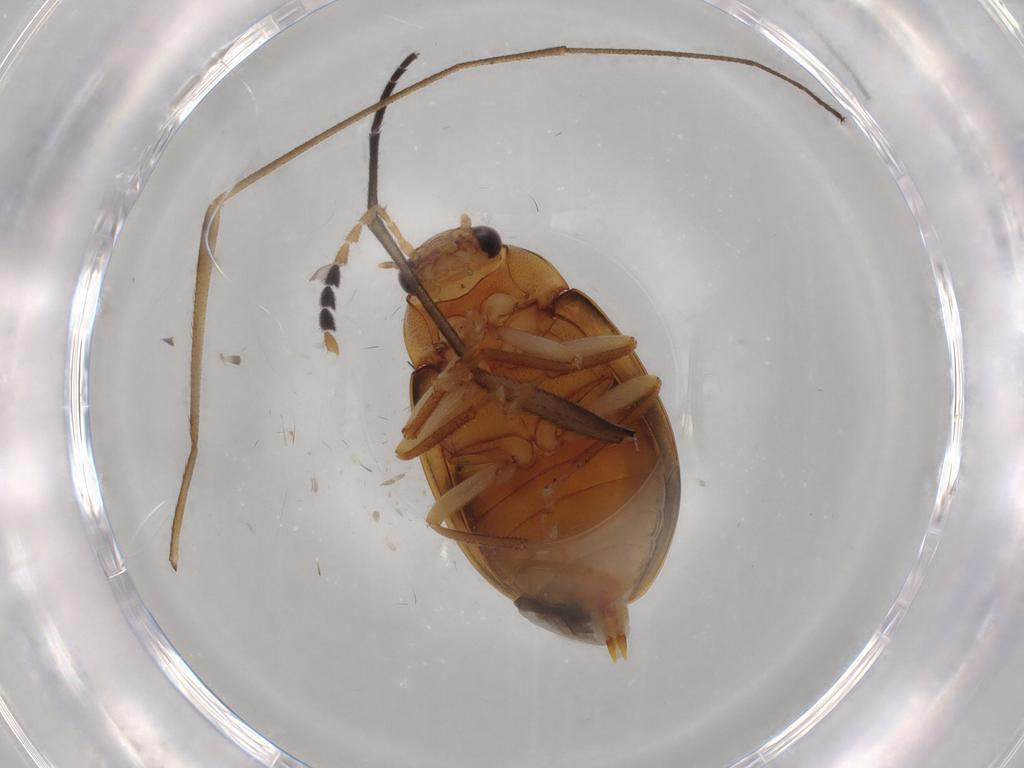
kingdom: Animalia
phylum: Arthropoda
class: Insecta
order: Coleoptera
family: Ptilodactylidae
